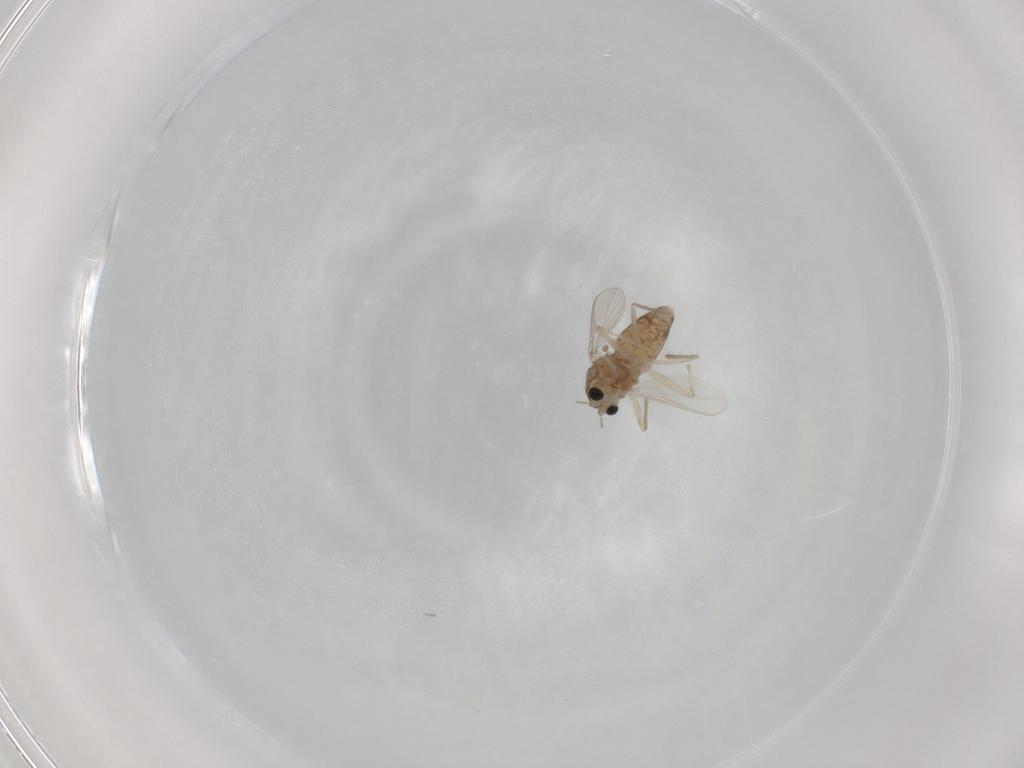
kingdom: Animalia
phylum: Arthropoda
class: Insecta
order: Diptera
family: Chironomidae
